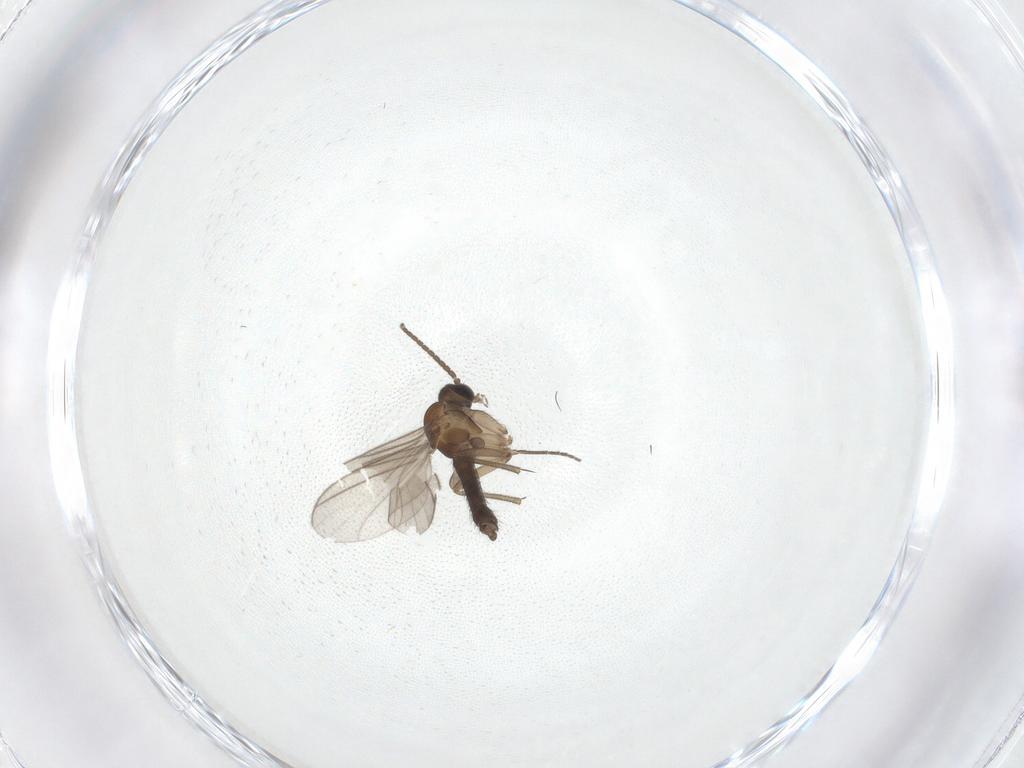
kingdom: Animalia
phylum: Arthropoda
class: Insecta
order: Diptera
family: Sciaridae
